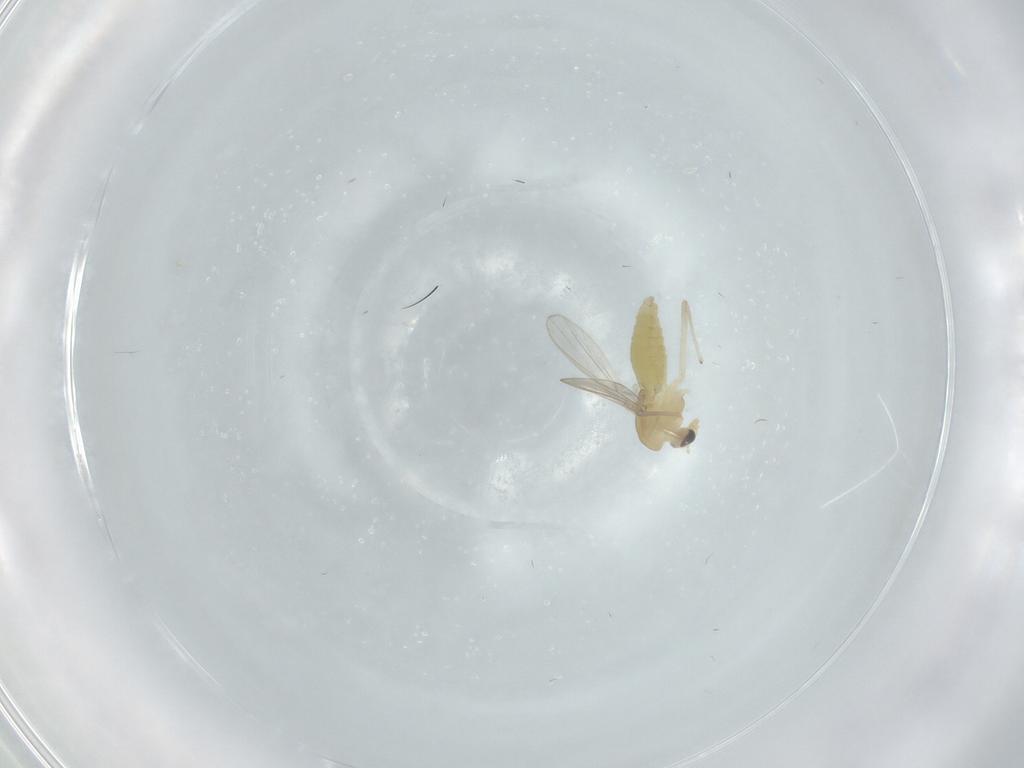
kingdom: Animalia
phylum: Arthropoda
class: Insecta
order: Diptera
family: Chironomidae
